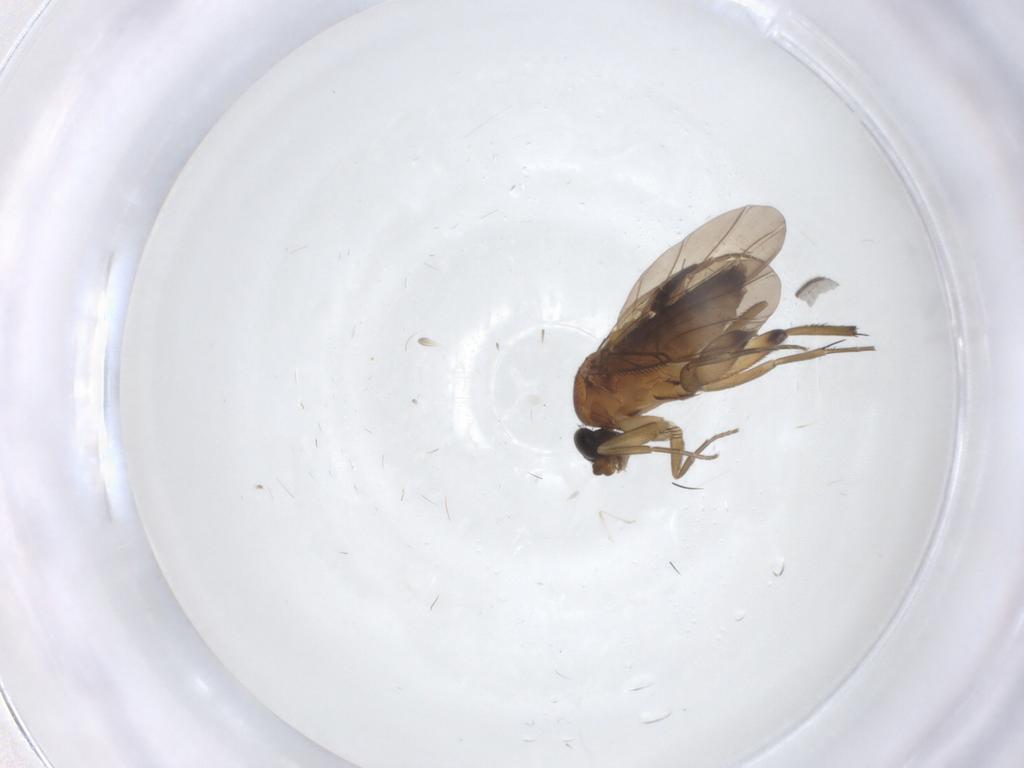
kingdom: Animalia
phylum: Arthropoda
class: Insecta
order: Diptera
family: Phoridae
